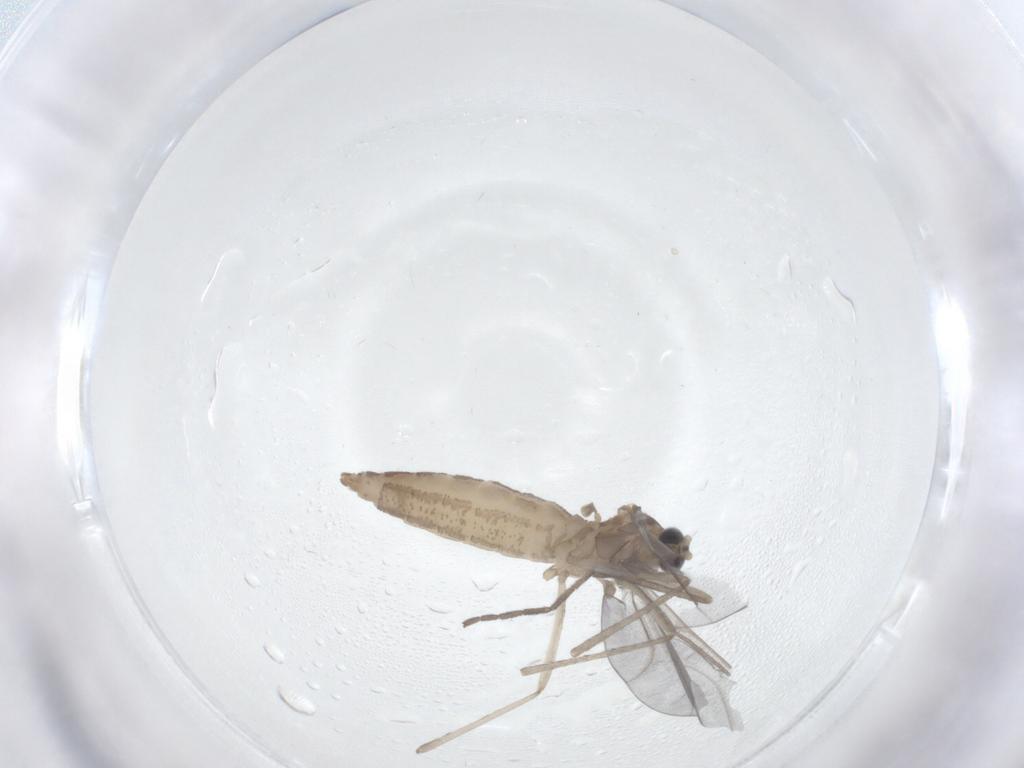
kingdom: Animalia
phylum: Arthropoda
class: Insecta
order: Diptera
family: Cecidomyiidae
